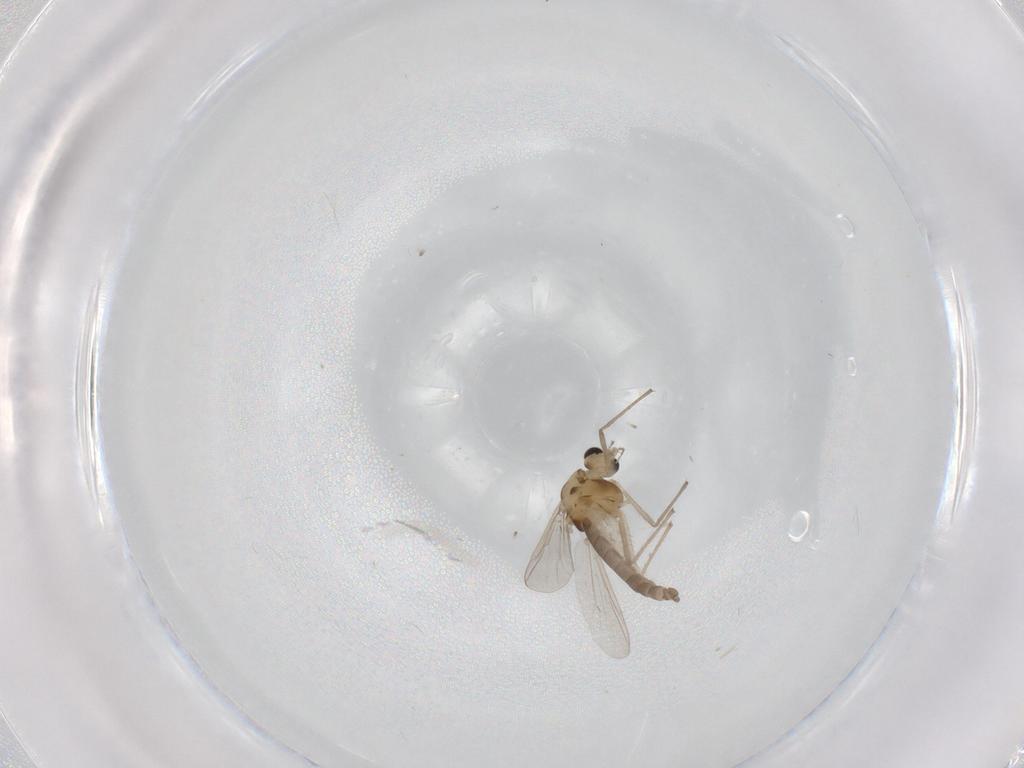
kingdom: Animalia
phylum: Arthropoda
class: Insecta
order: Diptera
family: Chironomidae
